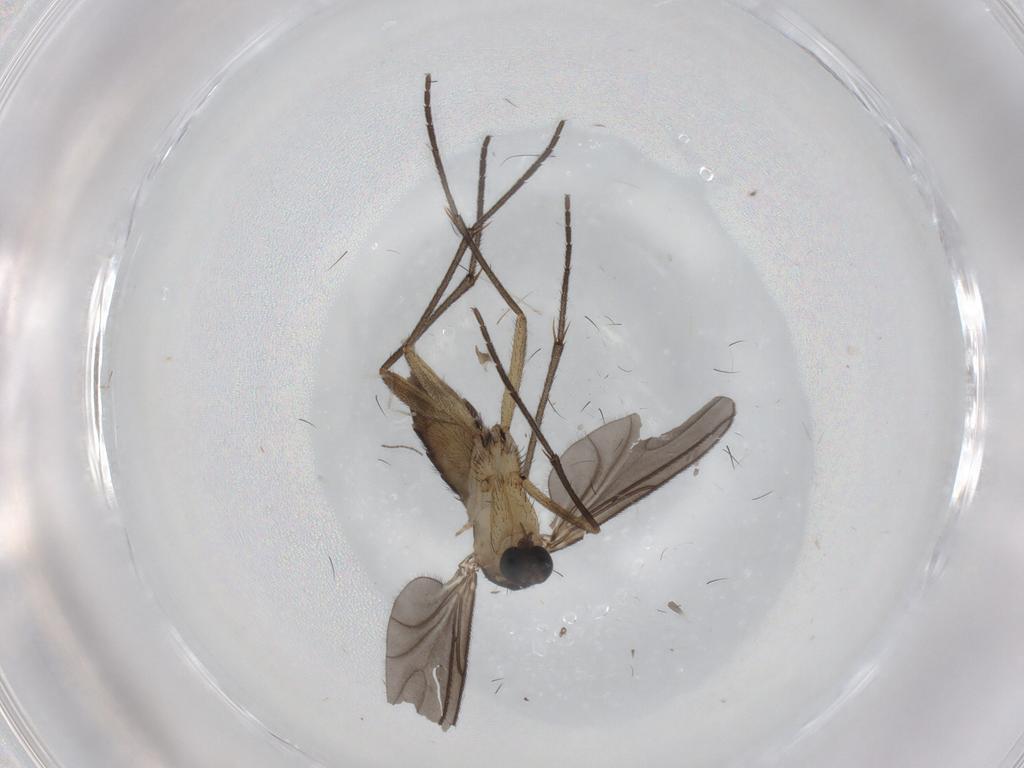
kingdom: Animalia
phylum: Arthropoda
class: Insecta
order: Diptera
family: Sciaridae
